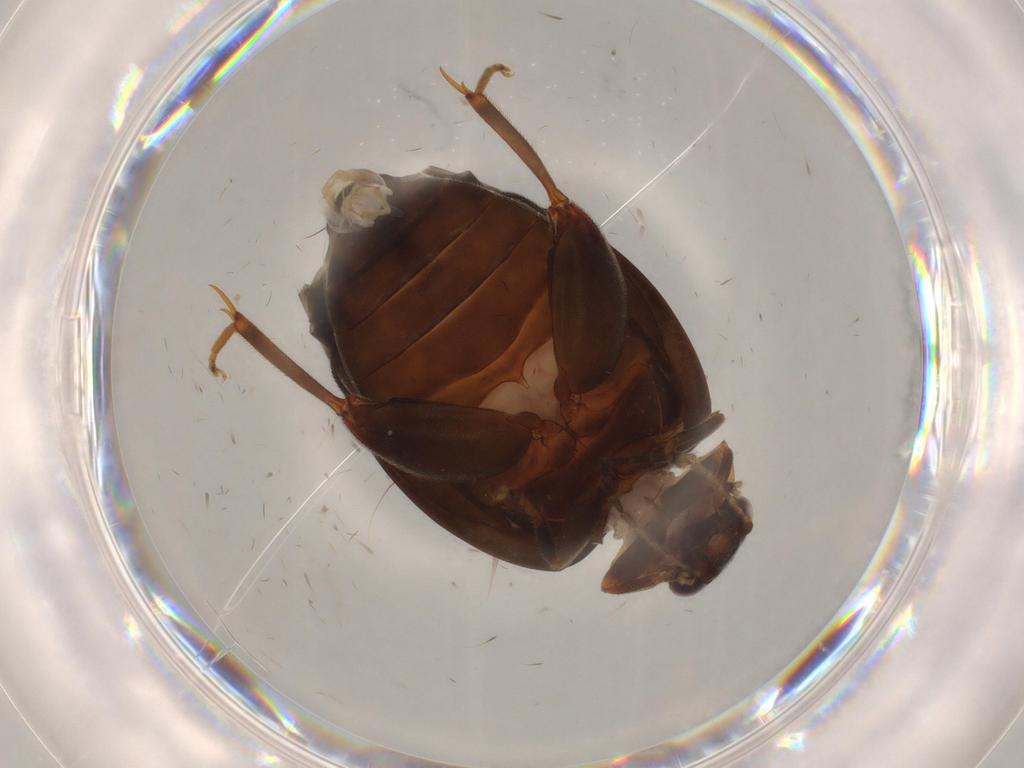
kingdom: Animalia
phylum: Arthropoda
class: Insecta
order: Coleoptera
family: Elateridae
